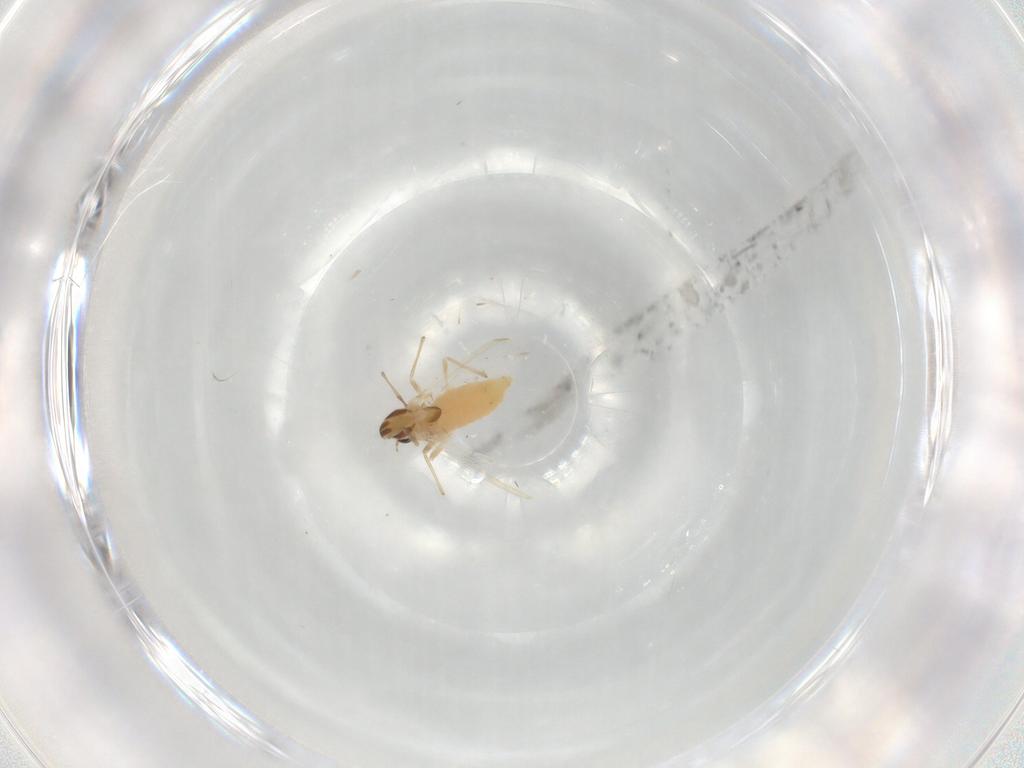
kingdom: Animalia
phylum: Arthropoda
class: Insecta
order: Diptera
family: Chironomidae
